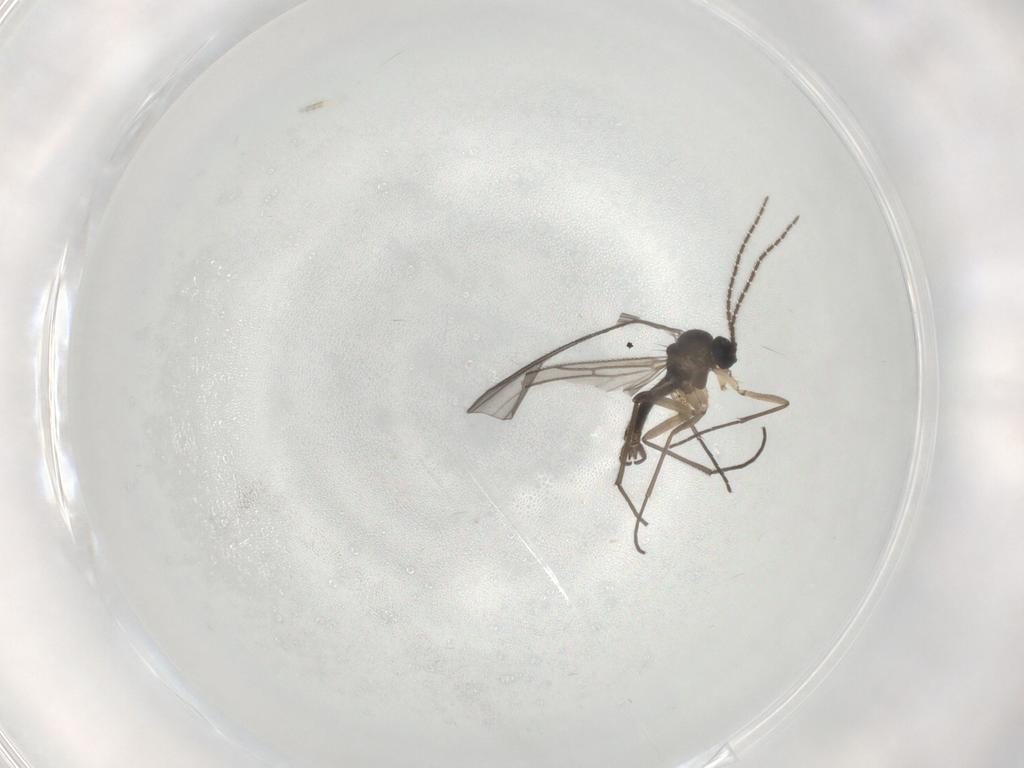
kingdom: Animalia
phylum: Arthropoda
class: Insecta
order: Diptera
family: Sciaridae
